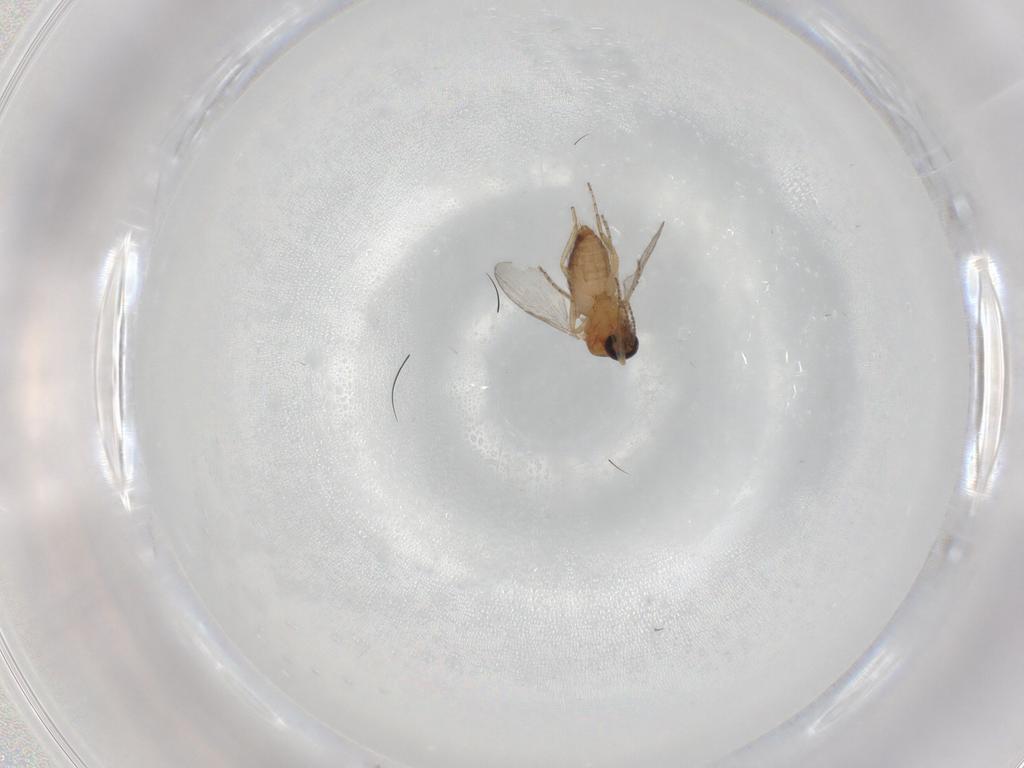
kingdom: Animalia
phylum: Arthropoda
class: Insecta
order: Diptera
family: Ceratopogonidae
